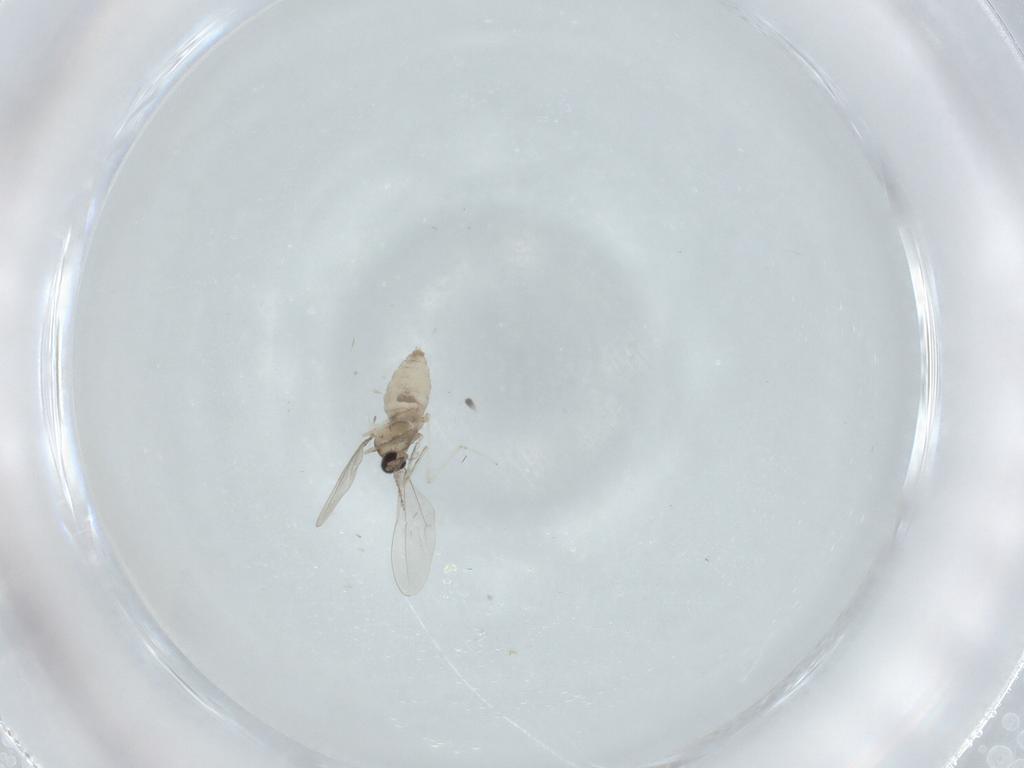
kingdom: Animalia
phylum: Arthropoda
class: Insecta
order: Diptera
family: Cecidomyiidae
